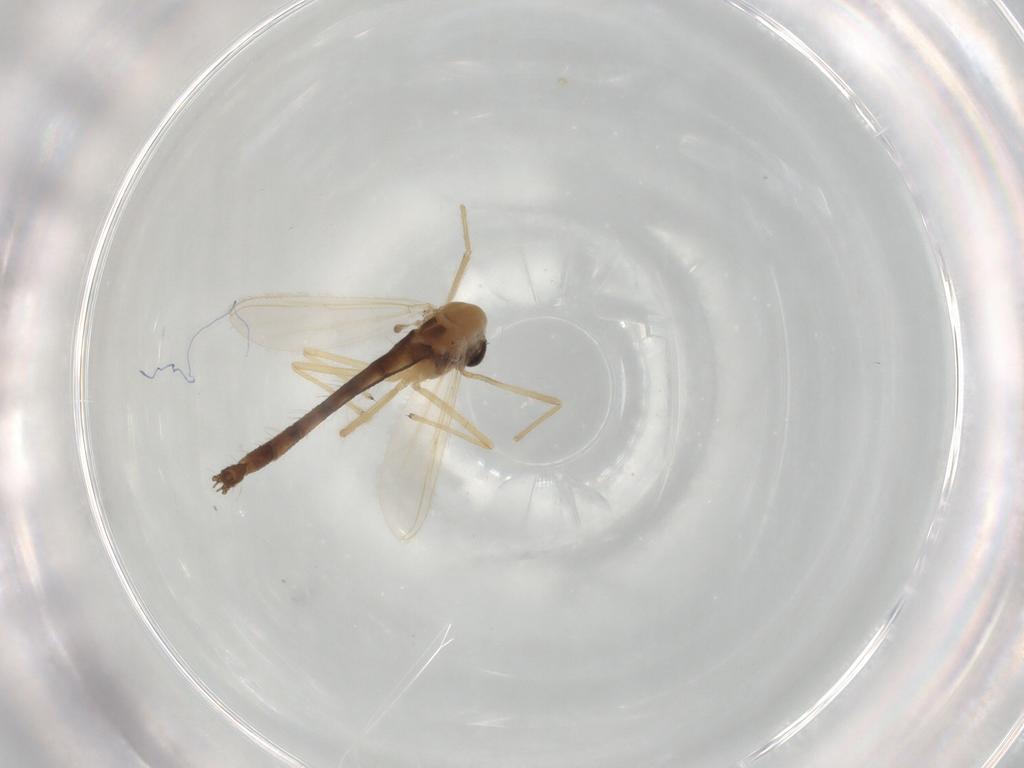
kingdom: Animalia
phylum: Arthropoda
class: Insecta
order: Diptera
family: Chironomidae
